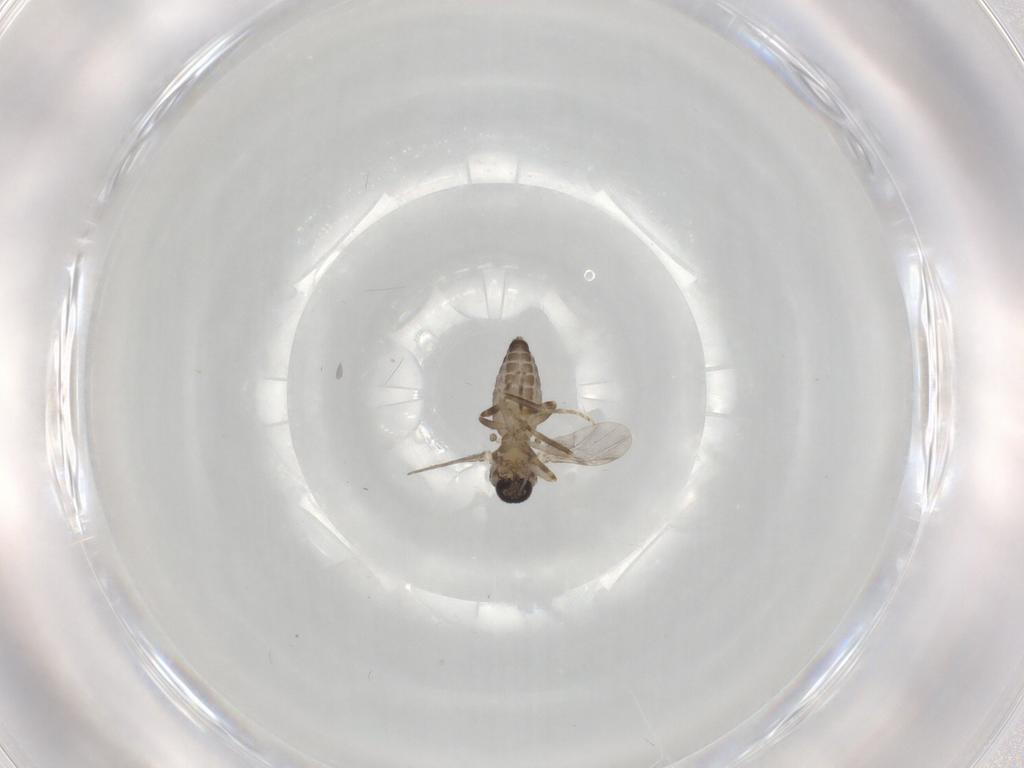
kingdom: Animalia
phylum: Arthropoda
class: Insecta
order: Diptera
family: Ceratopogonidae
